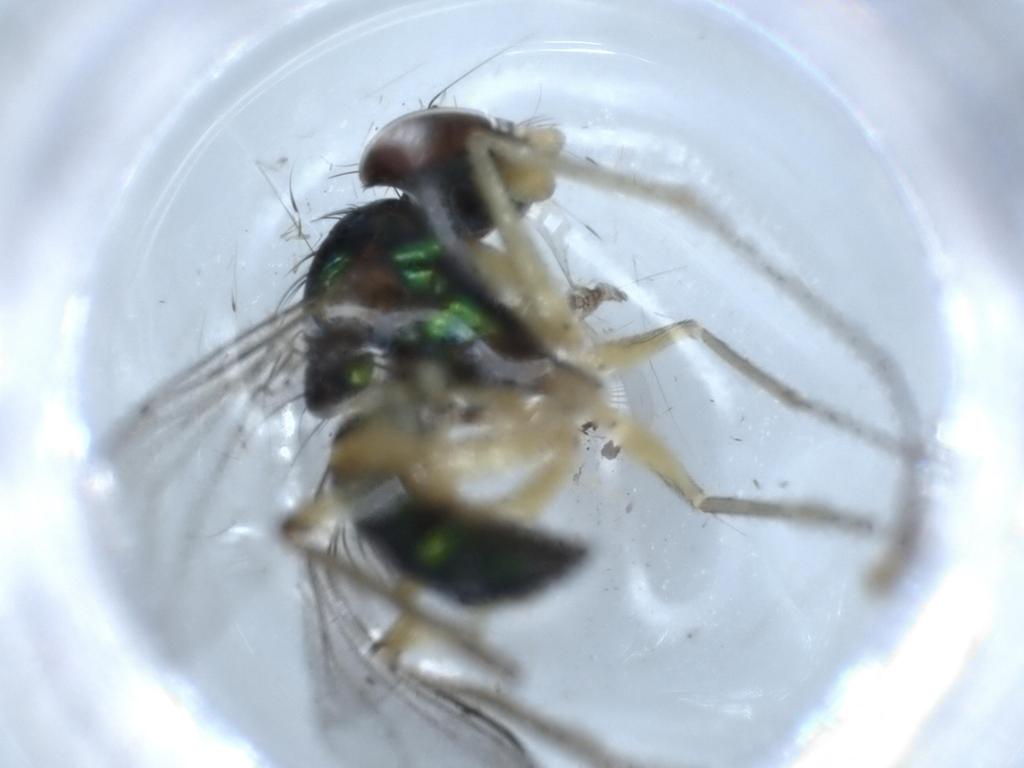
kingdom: Animalia
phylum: Arthropoda
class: Insecta
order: Diptera
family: Dolichopodidae
